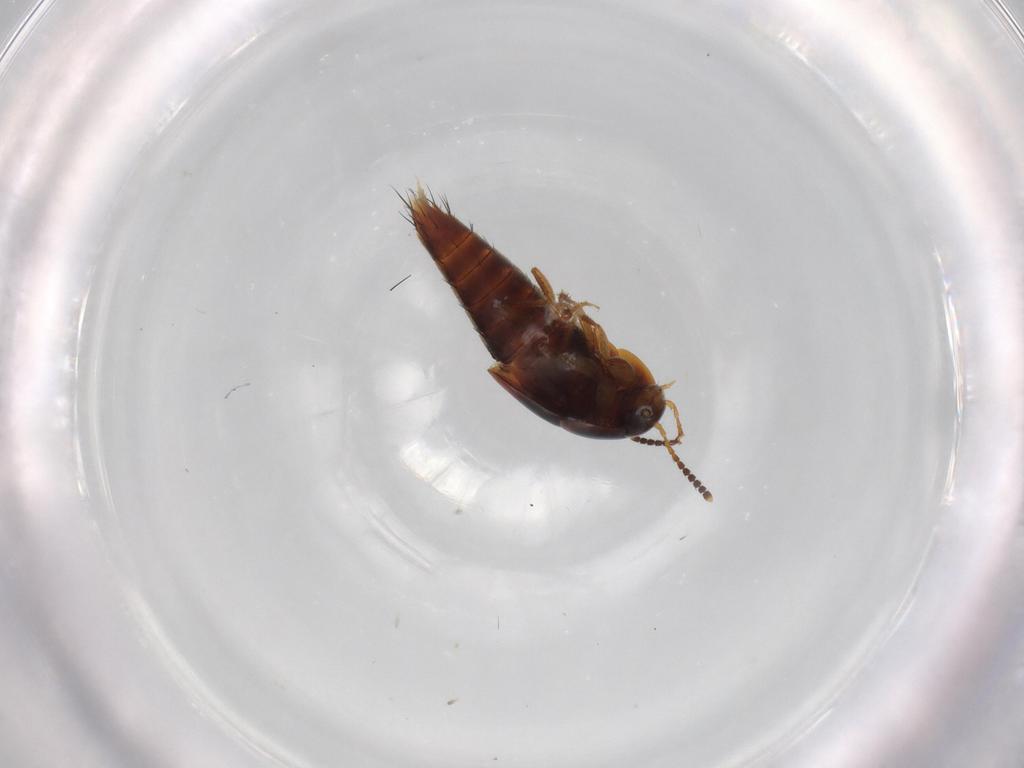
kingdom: Animalia
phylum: Arthropoda
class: Insecta
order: Coleoptera
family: Staphylinidae
